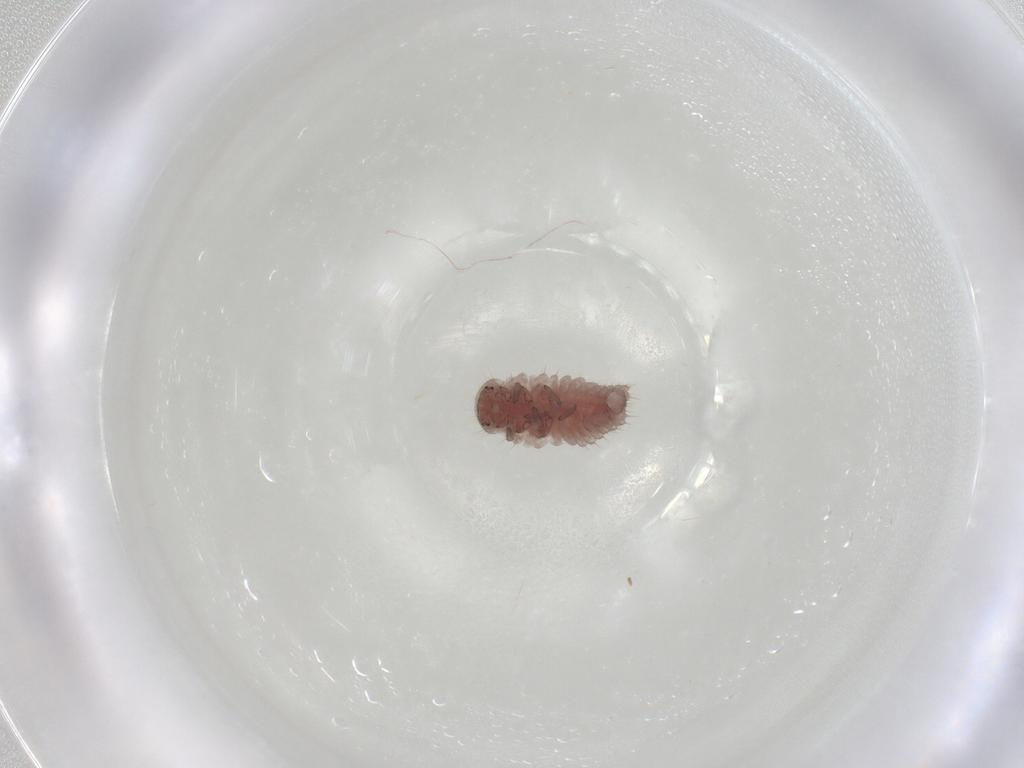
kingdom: Animalia
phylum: Arthropoda
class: Insecta
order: Coleoptera
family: Coccinellidae
